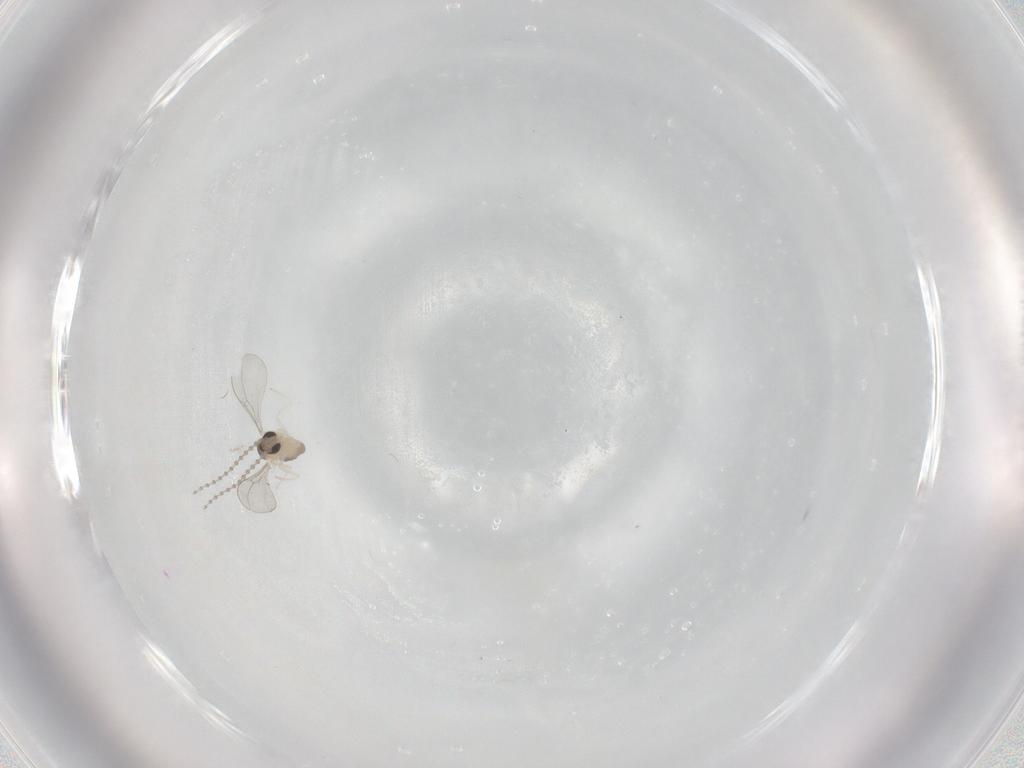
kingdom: Animalia
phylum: Arthropoda
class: Insecta
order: Diptera
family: Cecidomyiidae
